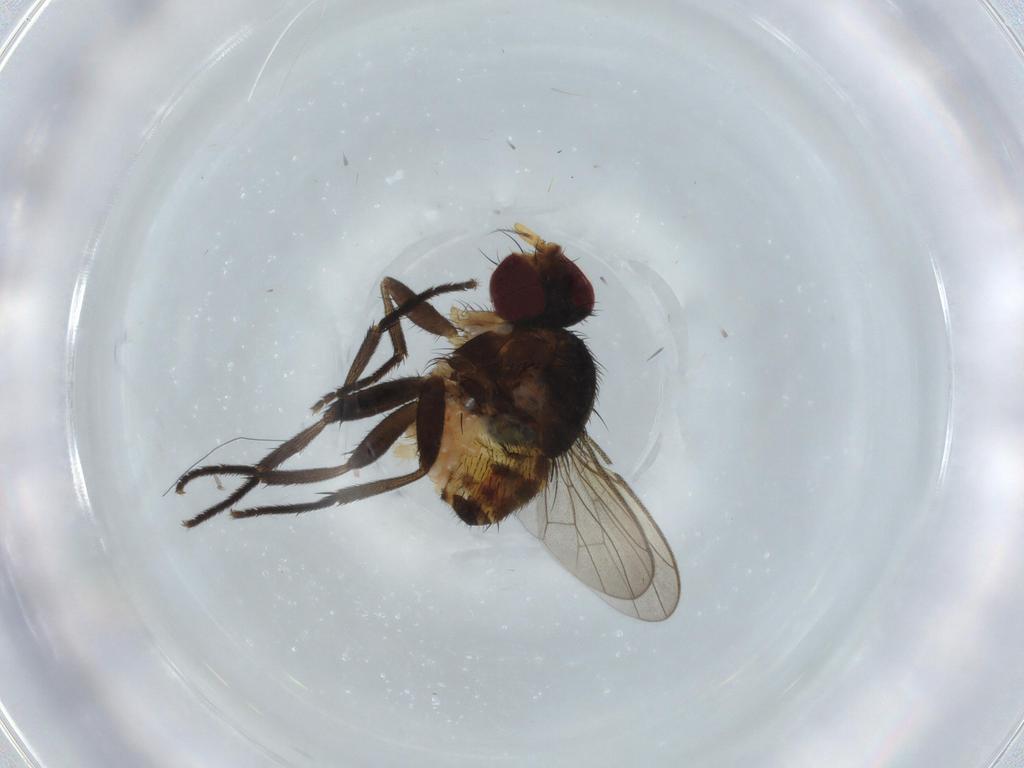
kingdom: Animalia
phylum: Arthropoda
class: Insecta
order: Diptera
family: Anthomyiidae
